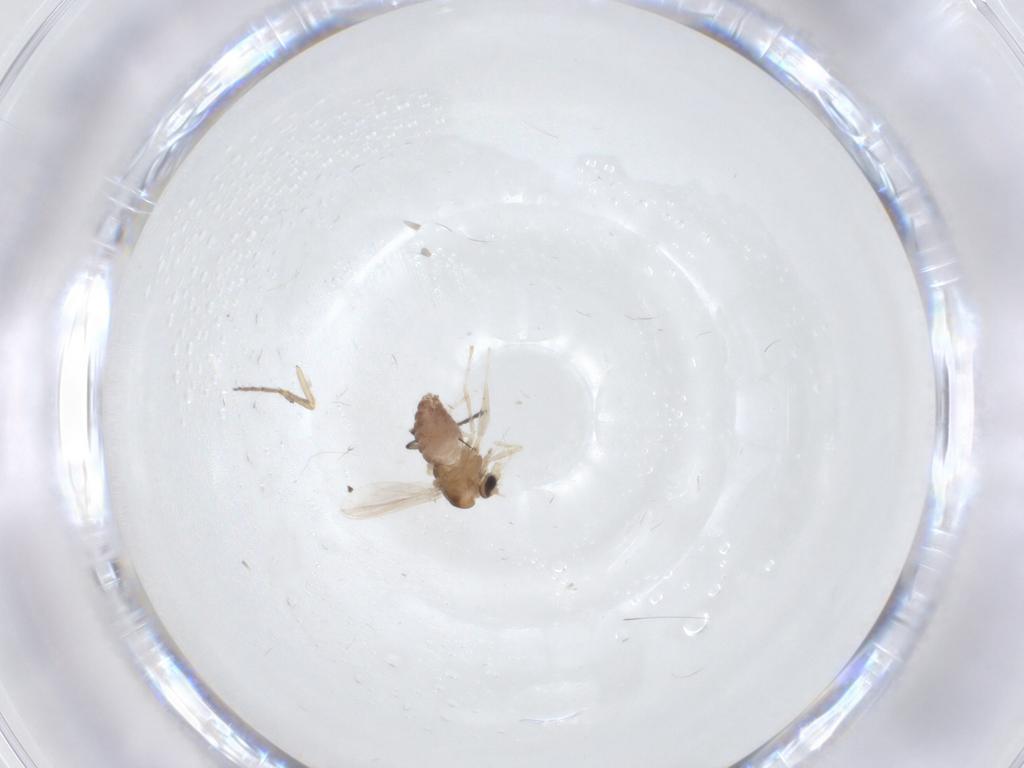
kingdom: Animalia
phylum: Arthropoda
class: Insecta
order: Diptera
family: Chironomidae
